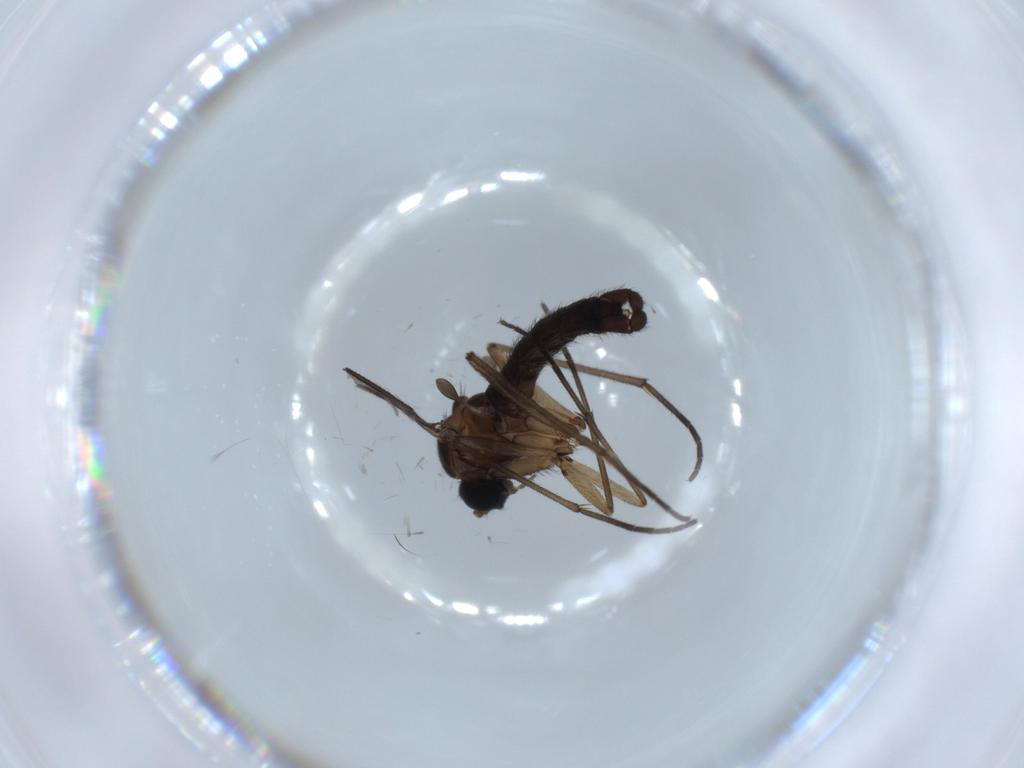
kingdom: Animalia
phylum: Arthropoda
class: Insecta
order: Diptera
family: Sciaridae
